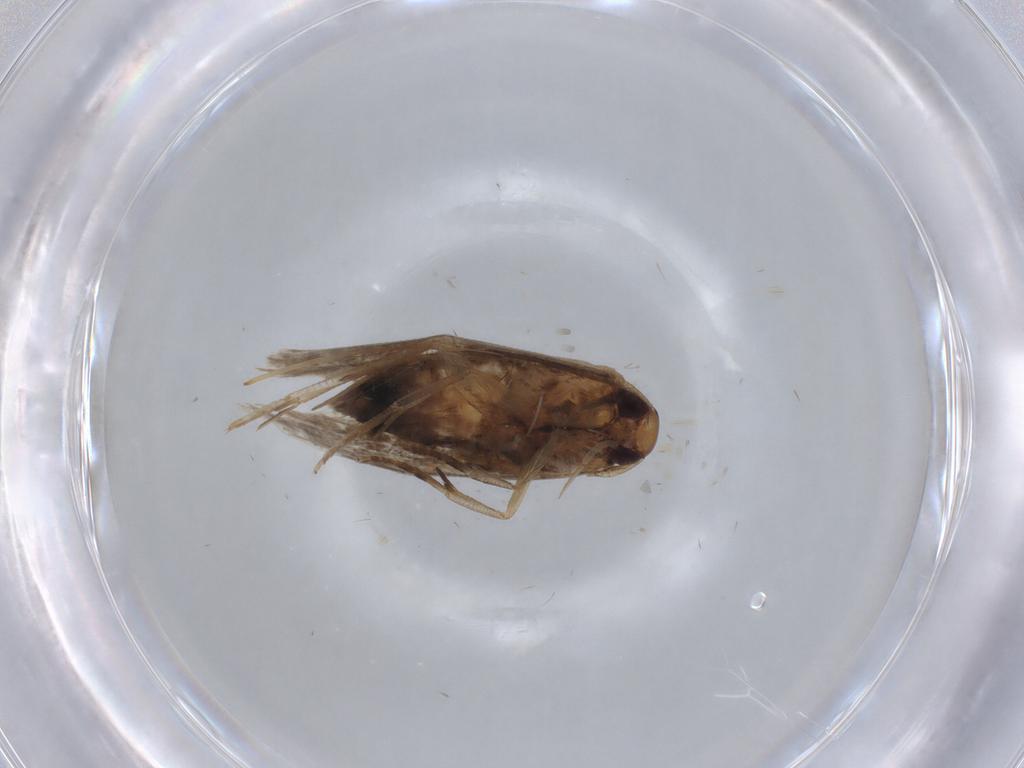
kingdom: Animalia
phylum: Arthropoda
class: Insecta
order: Lepidoptera
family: Cosmopterigidae
